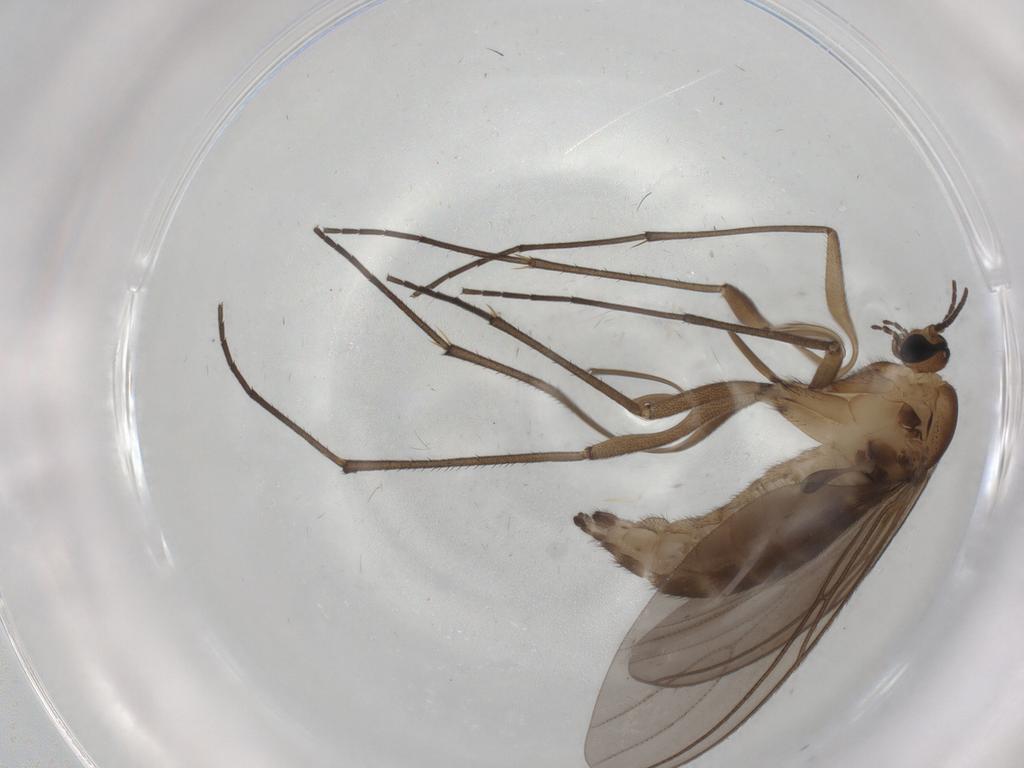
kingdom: Animalia
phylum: Arthropoda
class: Insecta
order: Diptera
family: Sciaridae
